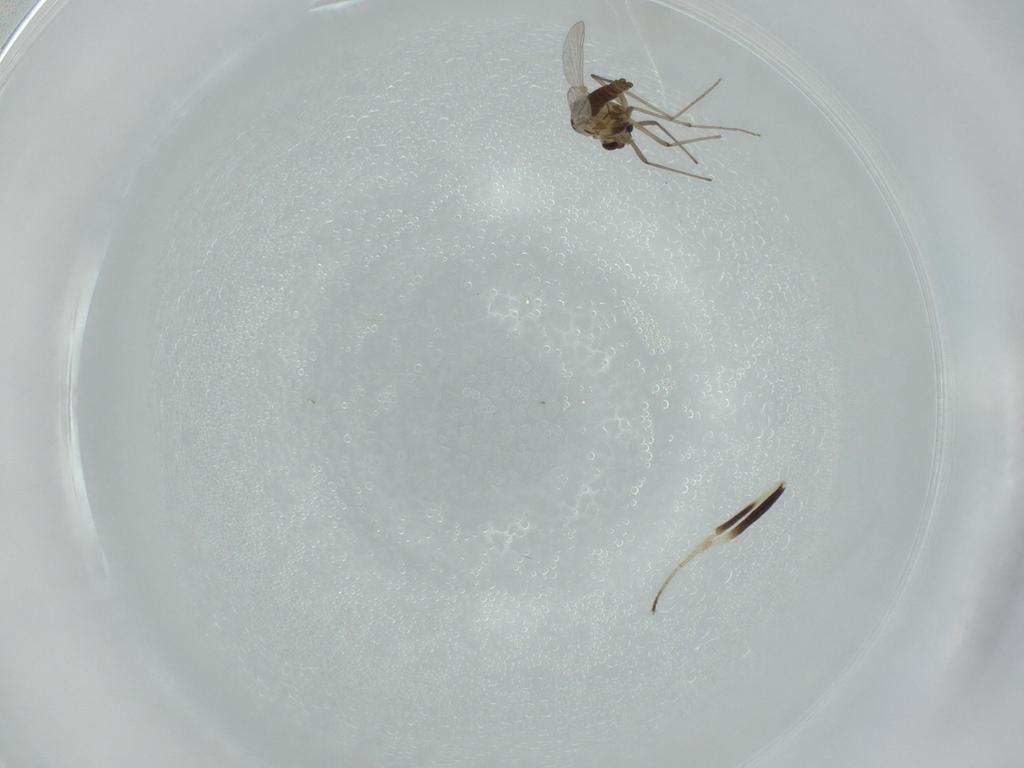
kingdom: Animalia
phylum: Arthropoda
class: Insecta
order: Diptera
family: Hybotidae
